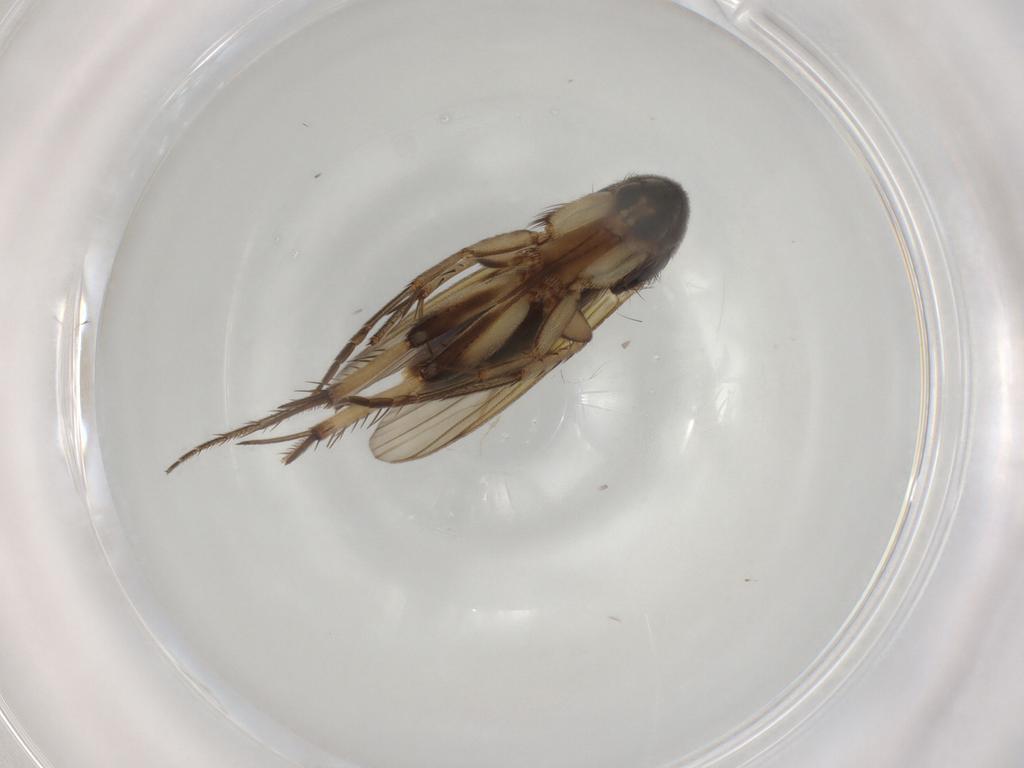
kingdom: Animalia
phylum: Arthropoda
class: Insecta
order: Diptera
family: Mycetophilidae
